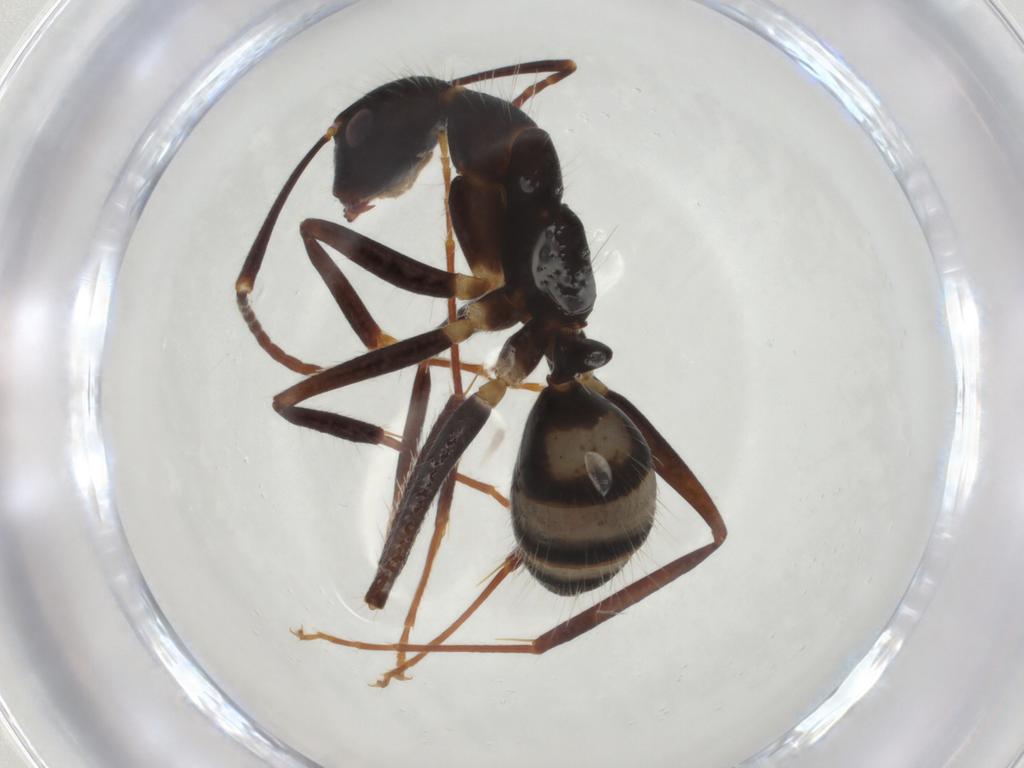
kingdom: Animalia
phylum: Arthropoda
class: Insecta
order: Hymenoptera
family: Formicidae
